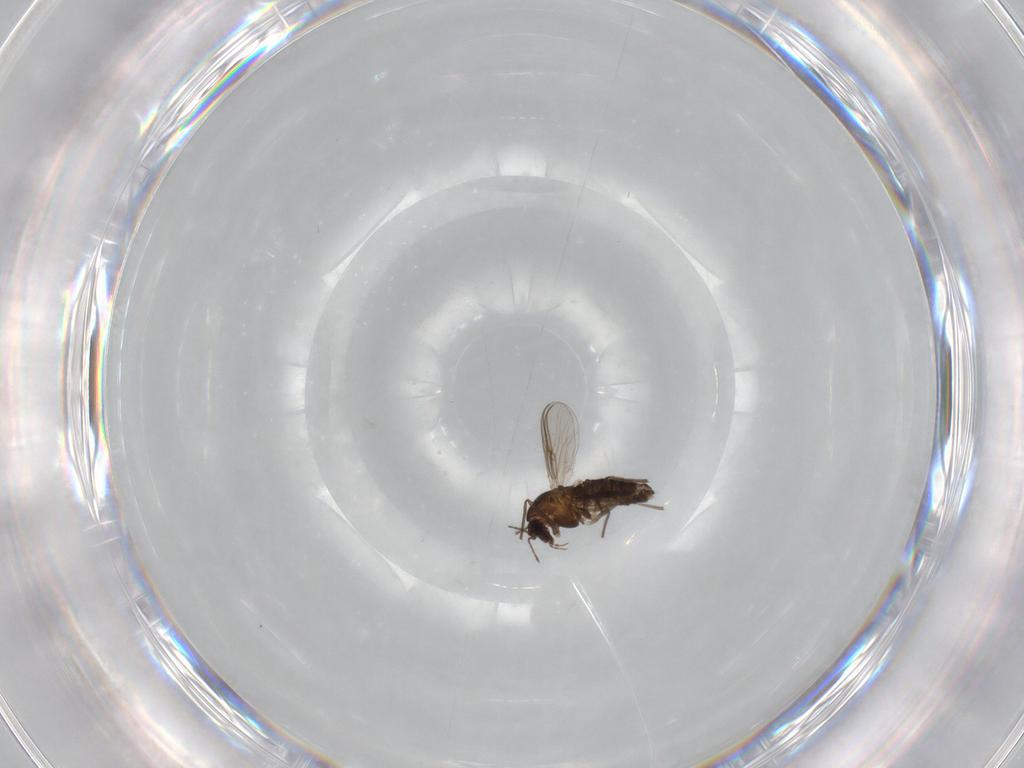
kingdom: Animalia
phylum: Arthropoda
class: Insecta
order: Diptera
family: Chironomidae
